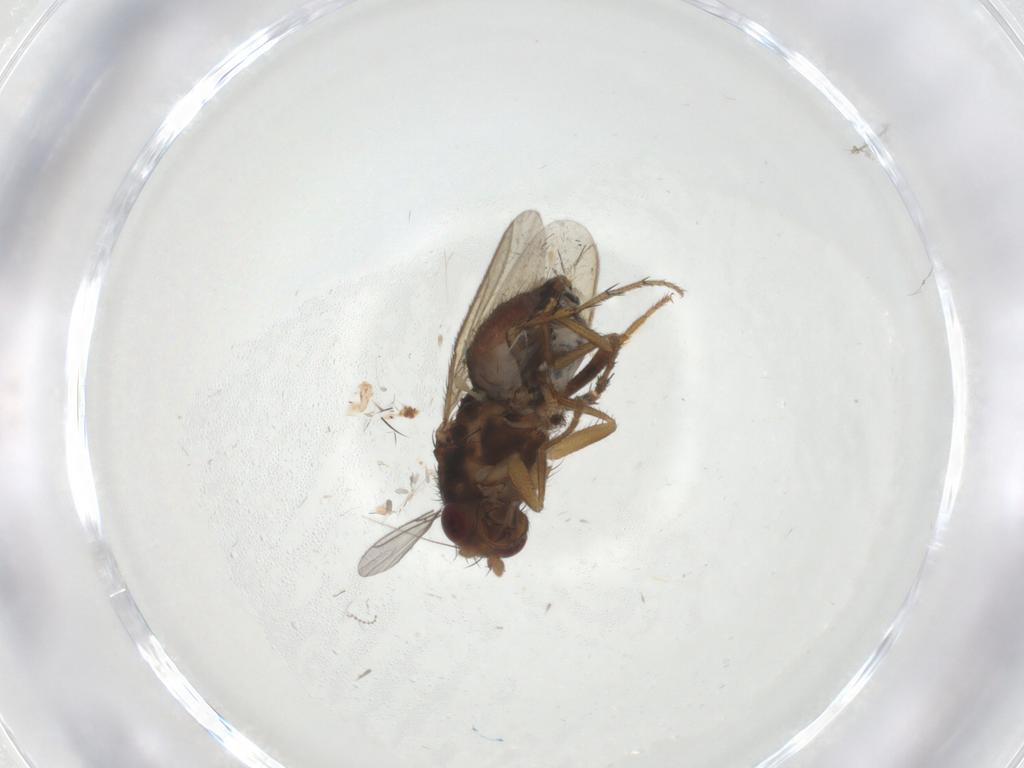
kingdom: Animalia
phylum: Arthropoda
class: Insecta
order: Diptera
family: Sphaeroceridae
